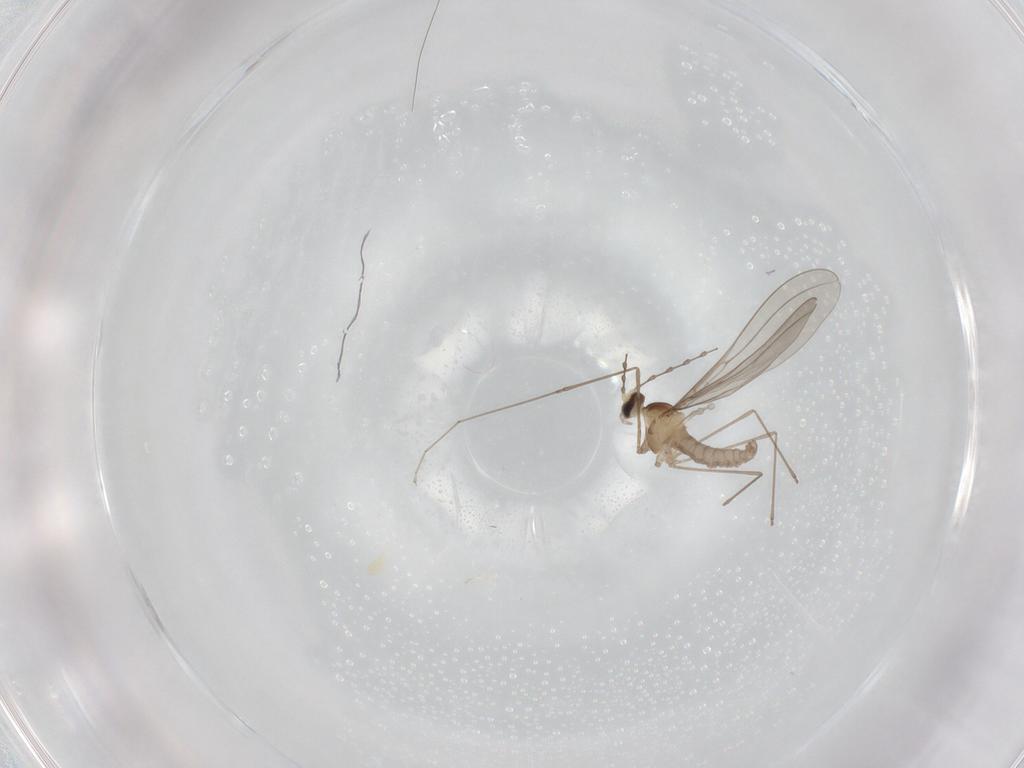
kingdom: Animalia
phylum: Arthropoda
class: Insecta
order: Diptera
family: Cecidomyiidae
